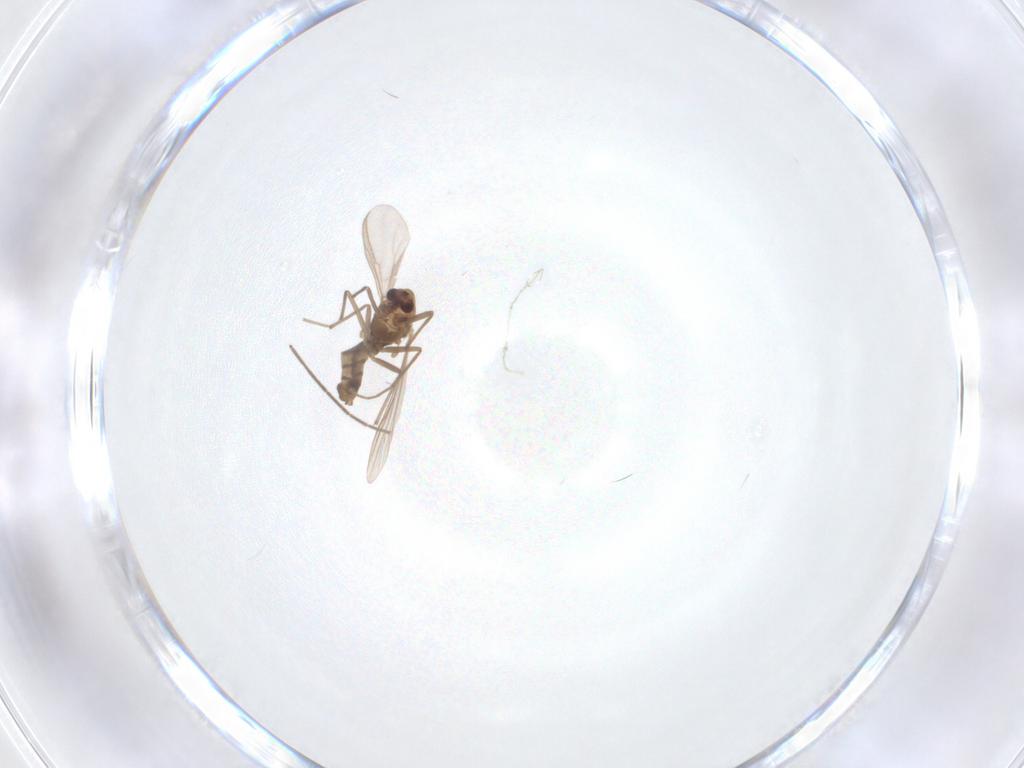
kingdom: Animalia
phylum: Arthropoda
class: Insecta
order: Diptera
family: Chironomidae
